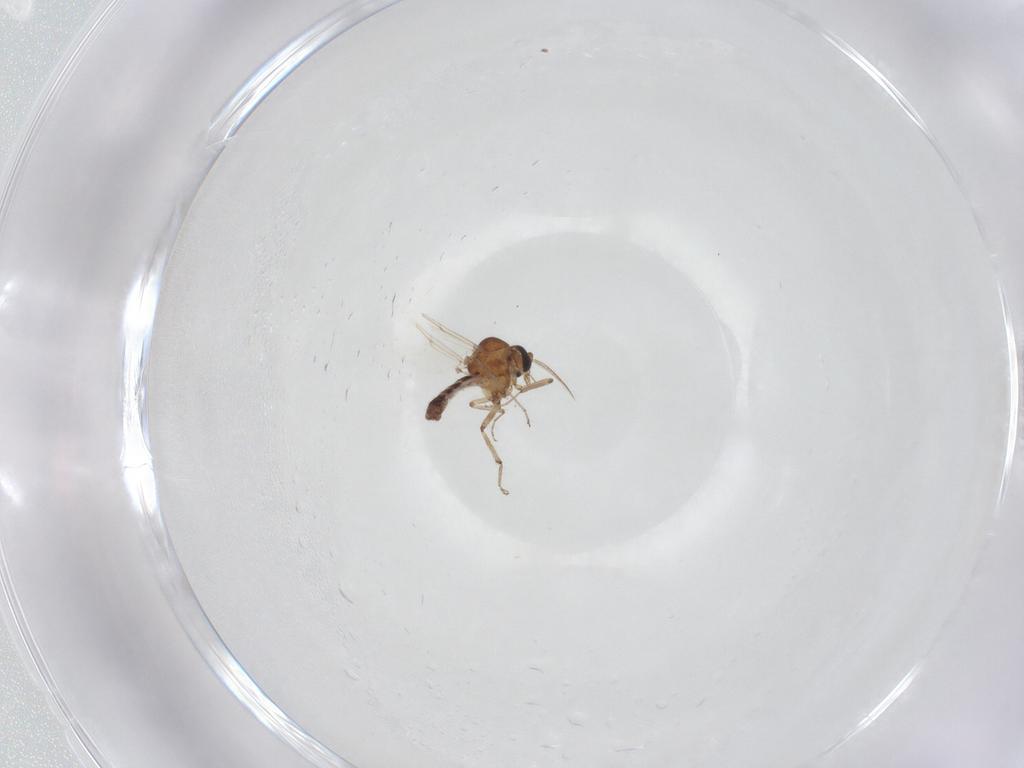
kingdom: Animalia
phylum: Arthropoda
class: Insecta
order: Diptera
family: Ceratopogonidae
